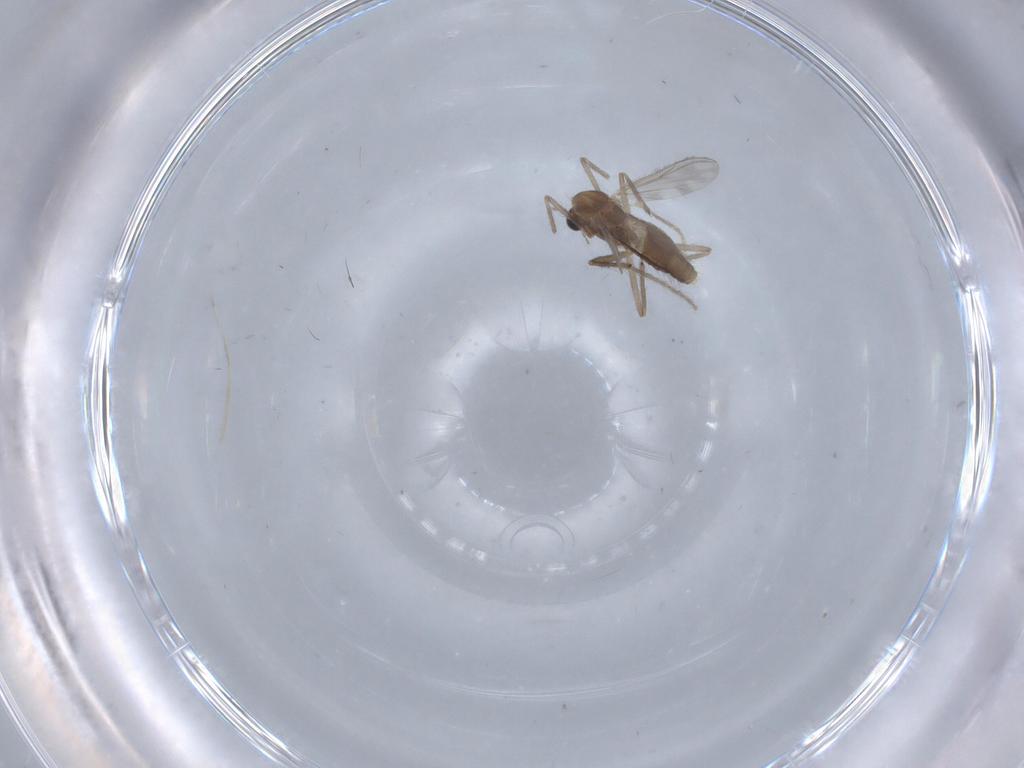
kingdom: Animalia
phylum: Arthropoda
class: Insecta
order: Diptera
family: Chironomidae
